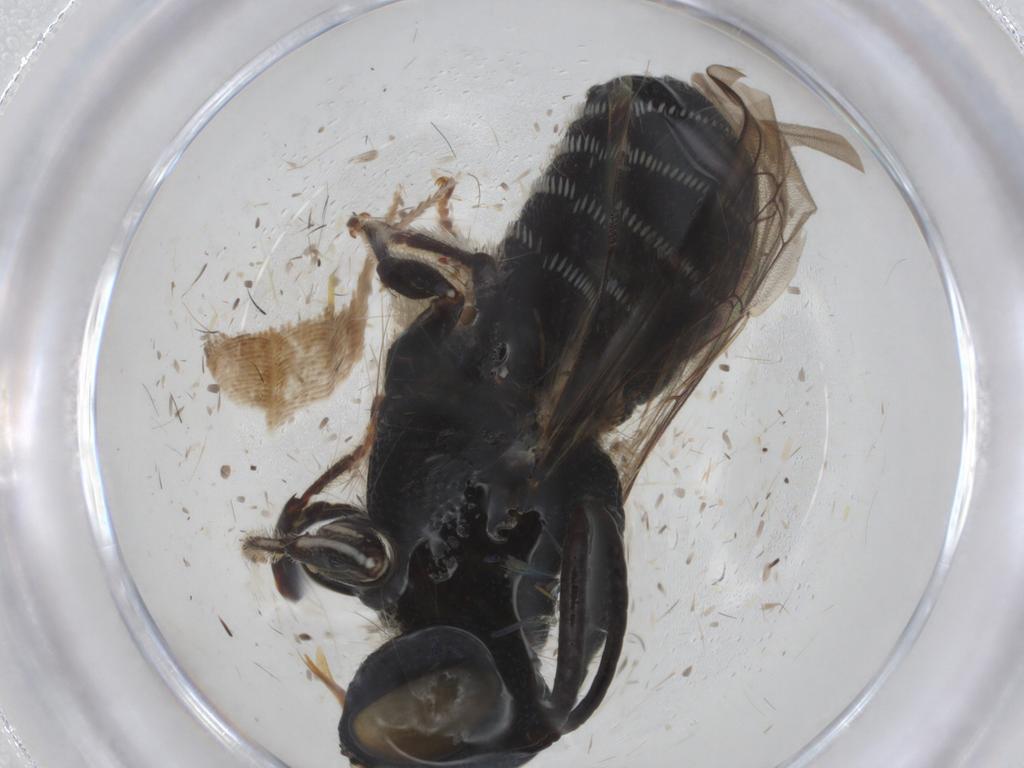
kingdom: Animalia
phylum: Arthropoda
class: Insecta
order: Hymenoptera
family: Apidae
